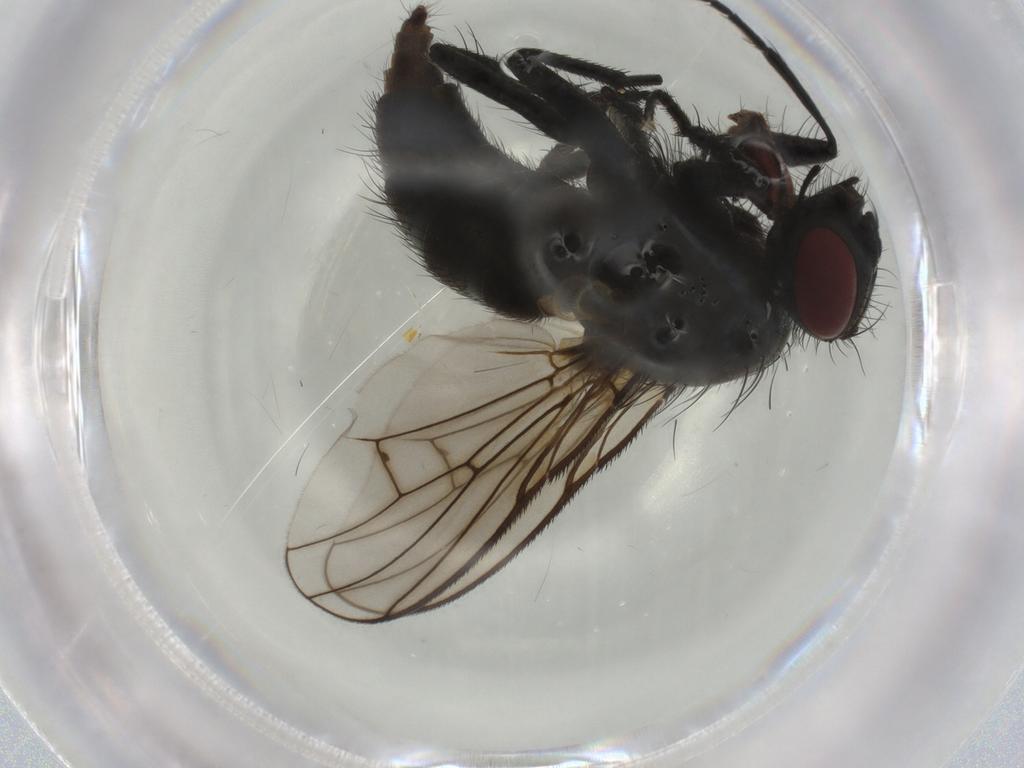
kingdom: Animalia
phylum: Arthropoda
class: Insecta
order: Diptera
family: Muscidae
